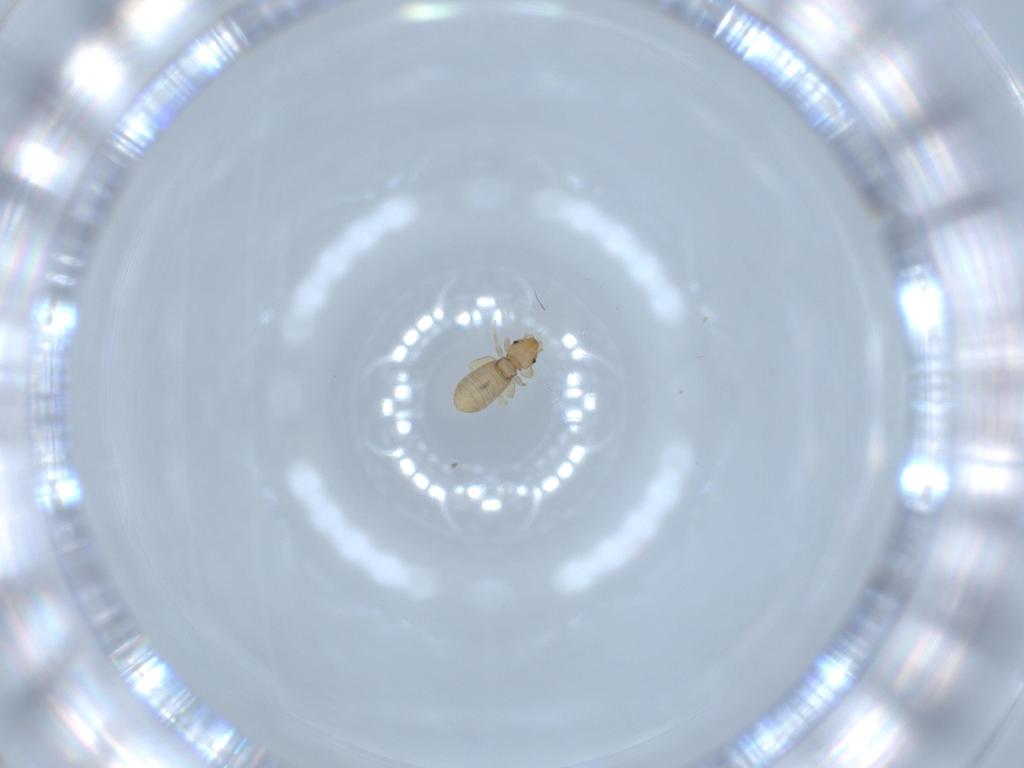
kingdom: Animalia
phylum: Arthropoda
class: Insecta
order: Psocodea
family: Liposcelididae
